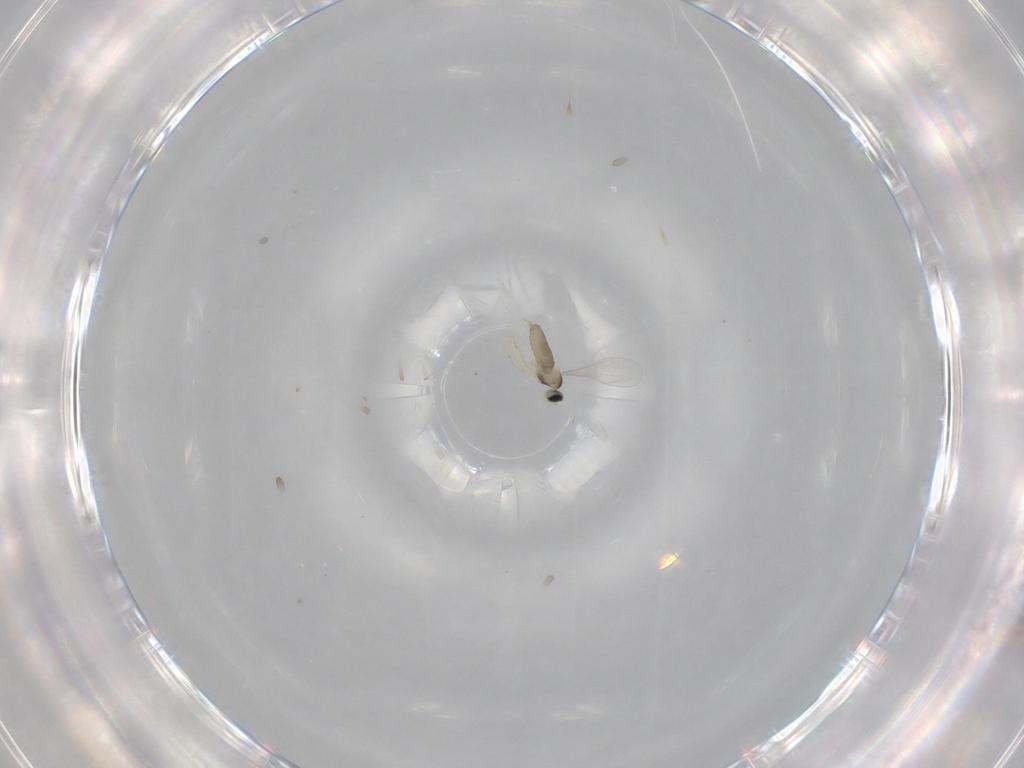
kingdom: Animalia
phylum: Arthropoda
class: Insecta
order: Diptera
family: Cecidomyiidae
